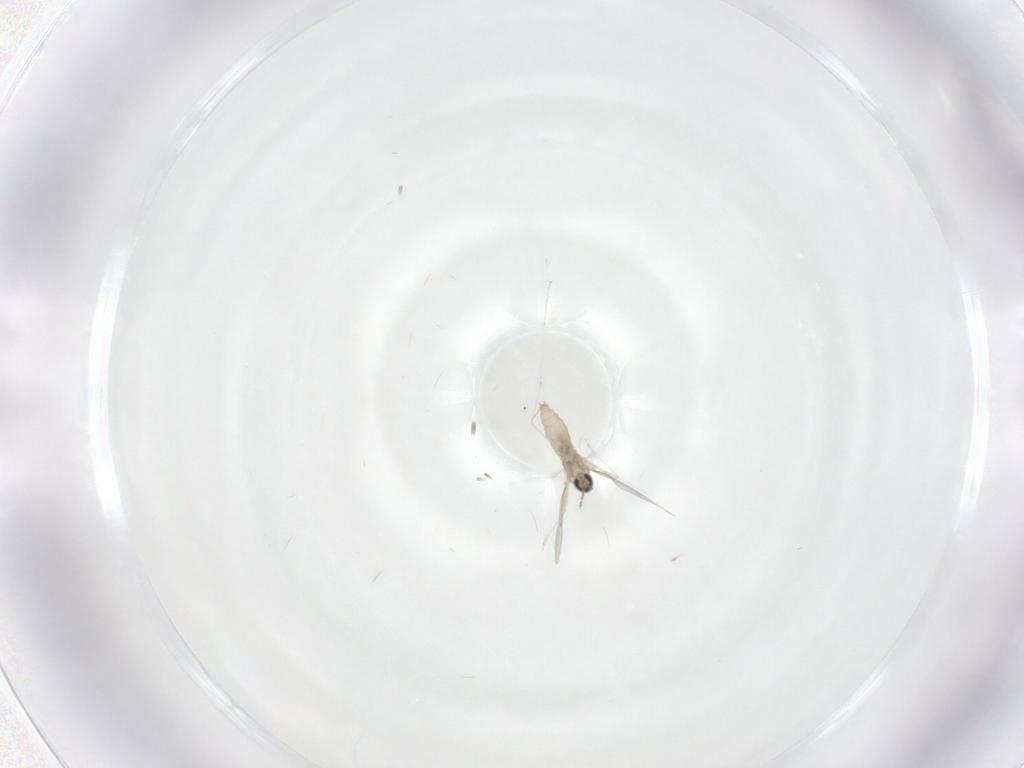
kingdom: Animalia
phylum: Arthropoda
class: Insecta
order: Diptera
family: Cecidomyiidae
